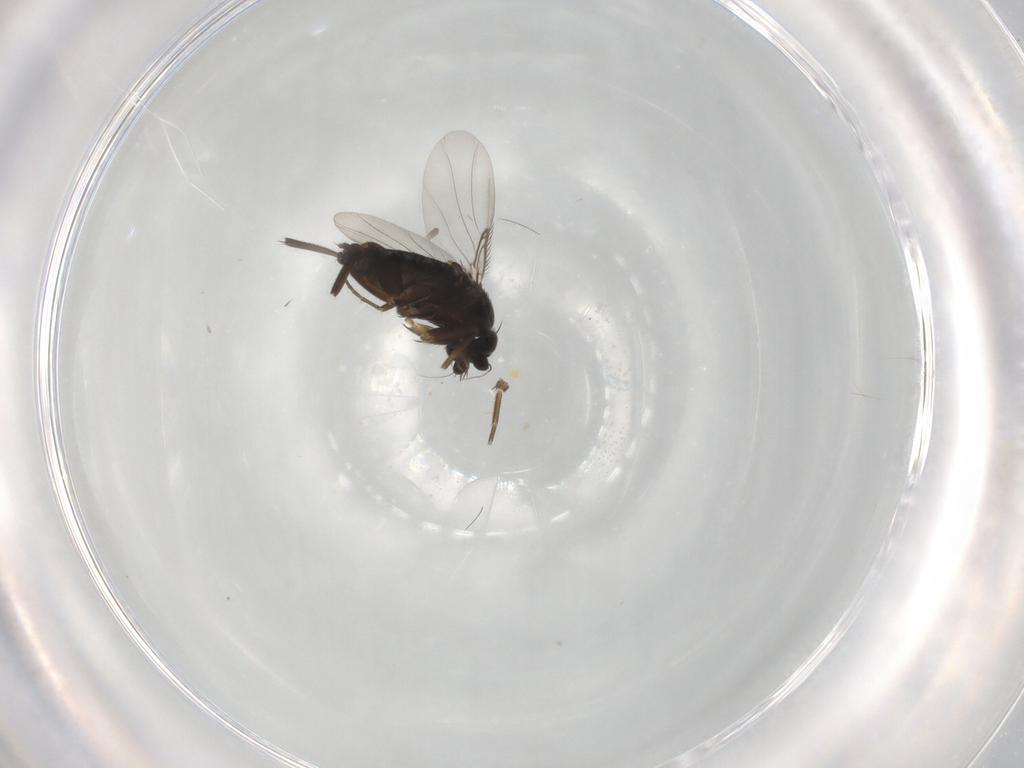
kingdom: Animalia
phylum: Arthropoda
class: Insecta
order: Diptera
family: Phoridae
